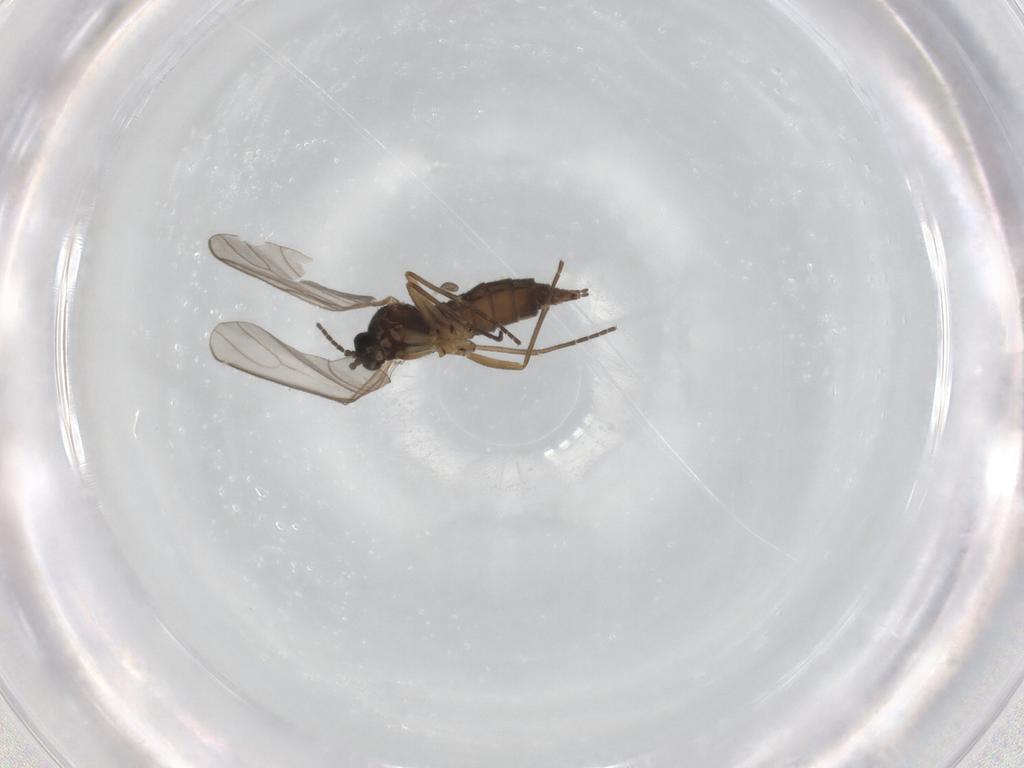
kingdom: Animalia
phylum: Arthropoda
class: Insecta
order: Diptera
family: Sciaridae
